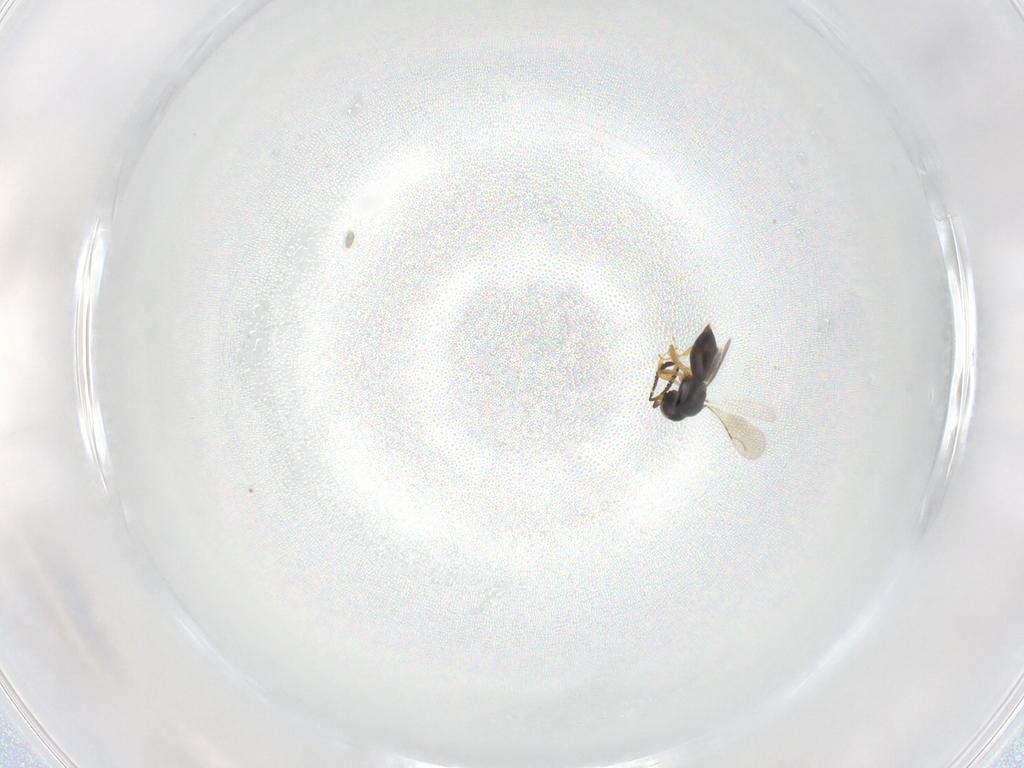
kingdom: Animalia
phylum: Arthropoda
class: Insecta
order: Hymenoptera
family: Ceraphronidae
